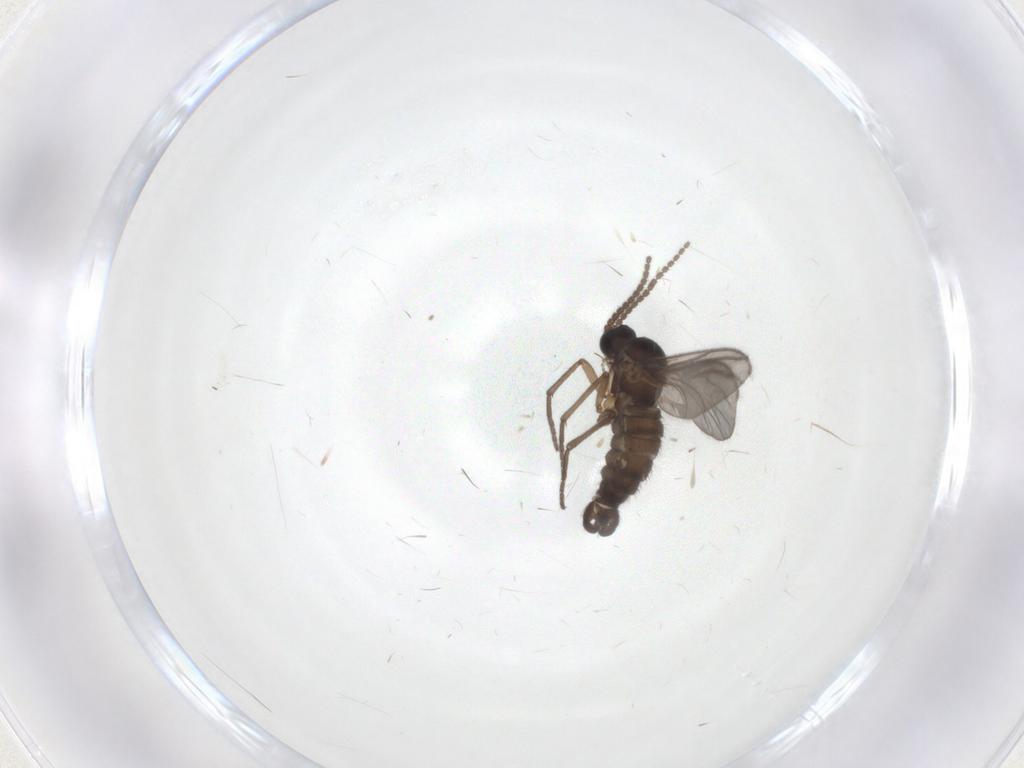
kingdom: Animalia
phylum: Arthropoda
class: Insecta
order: Diptera
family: Sciaridae
